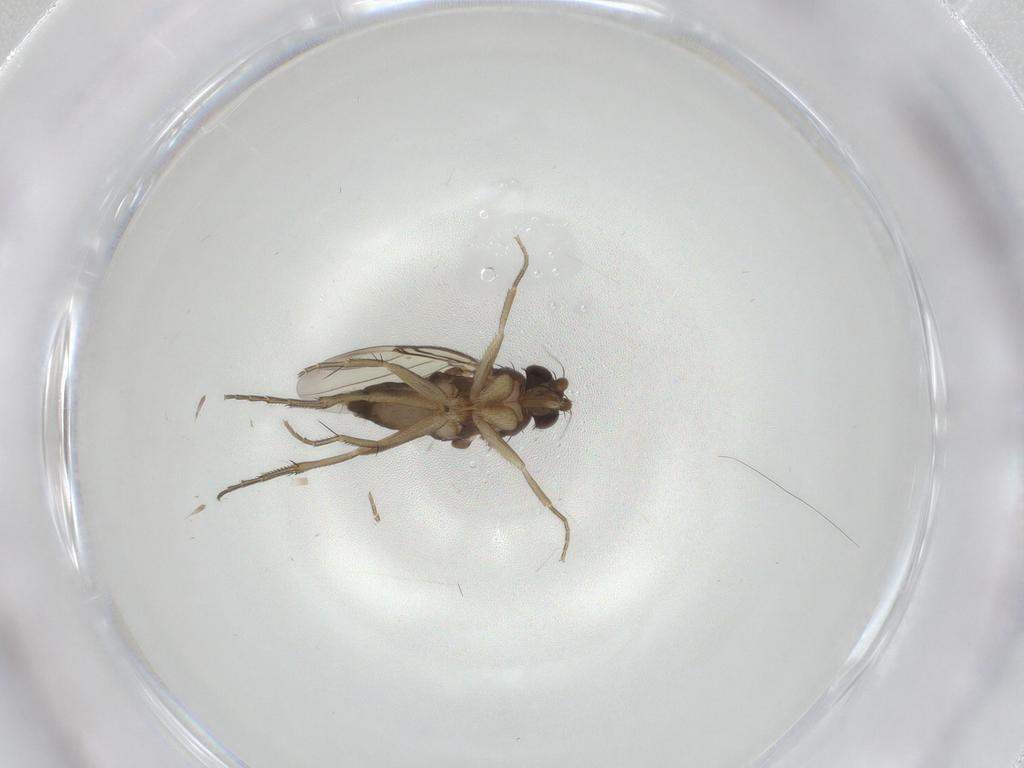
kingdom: Animalia
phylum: Arthropoda
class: Insecta
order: Diptera
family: Phoridae
